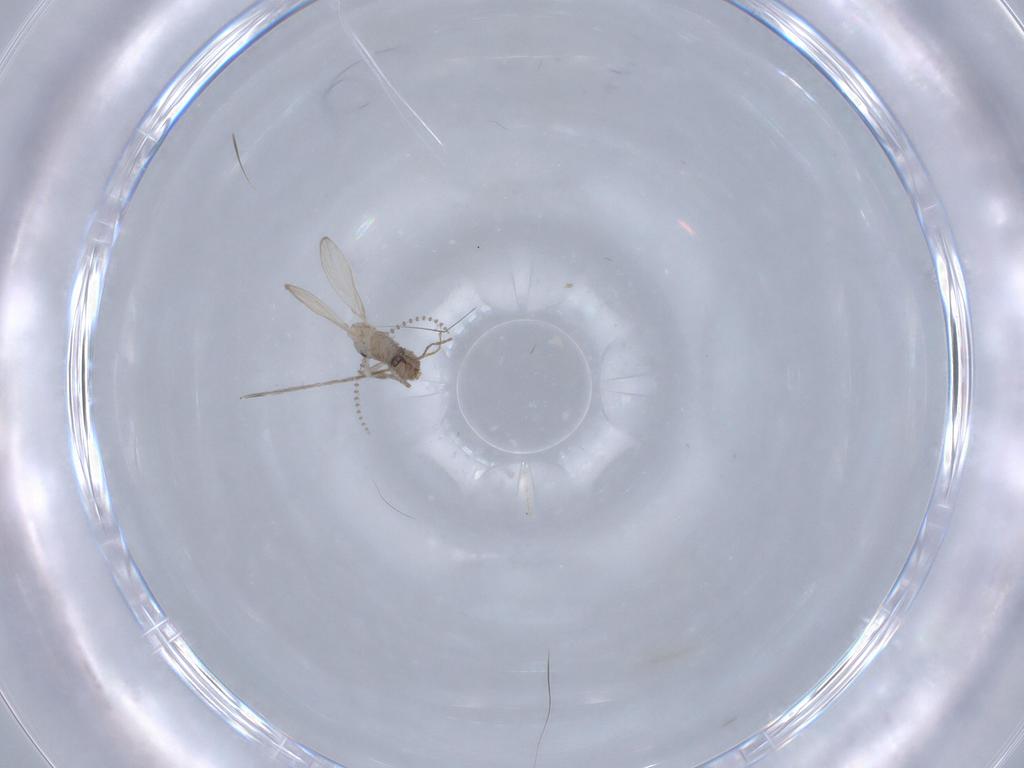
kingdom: Animalia
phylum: Arthropoda
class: Insecta
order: Diptera
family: Psychodidae
